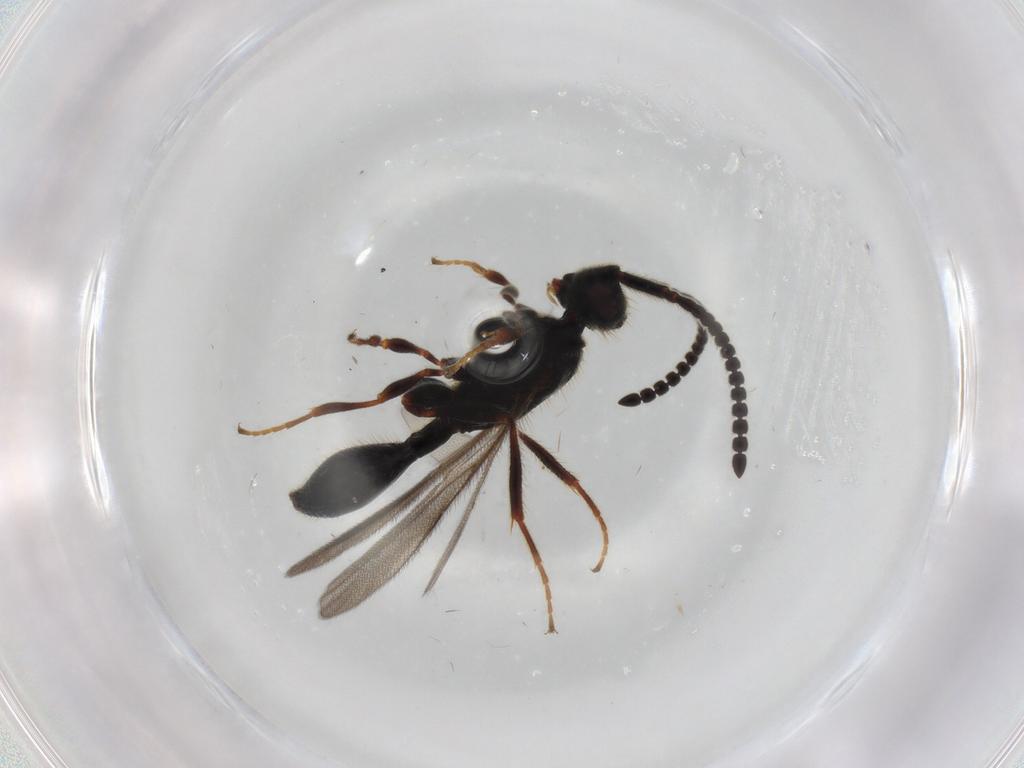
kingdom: Animalia
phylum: Arthropoda
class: Insecta
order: Hymenoptera
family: Diapriidae
